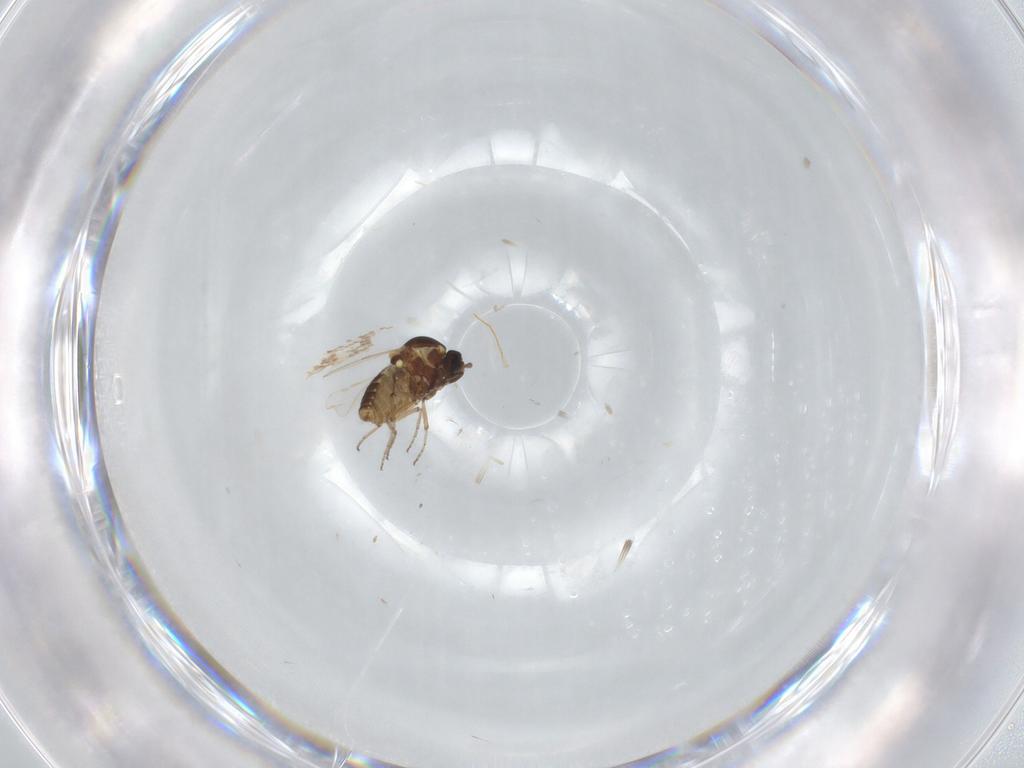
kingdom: Animalia
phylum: Arthropoda
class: Insecta
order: Diptera
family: Ceratopogonidae
